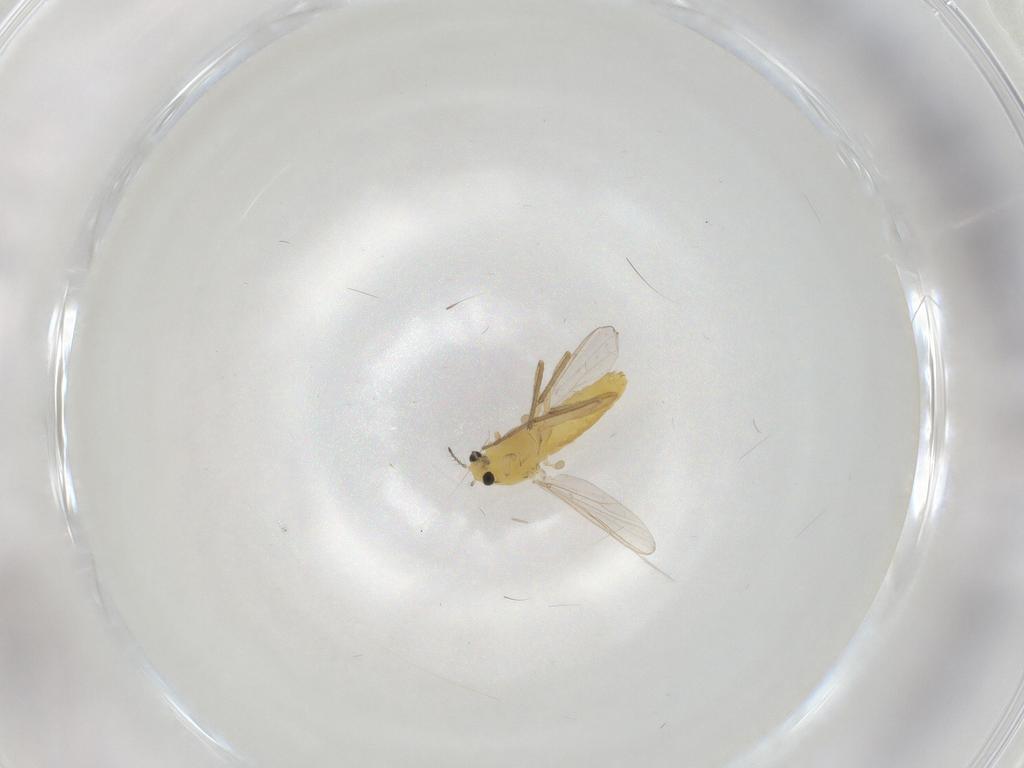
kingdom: Animalia
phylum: Arthropoda
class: Insecta
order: Diptera
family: Chironomidae
